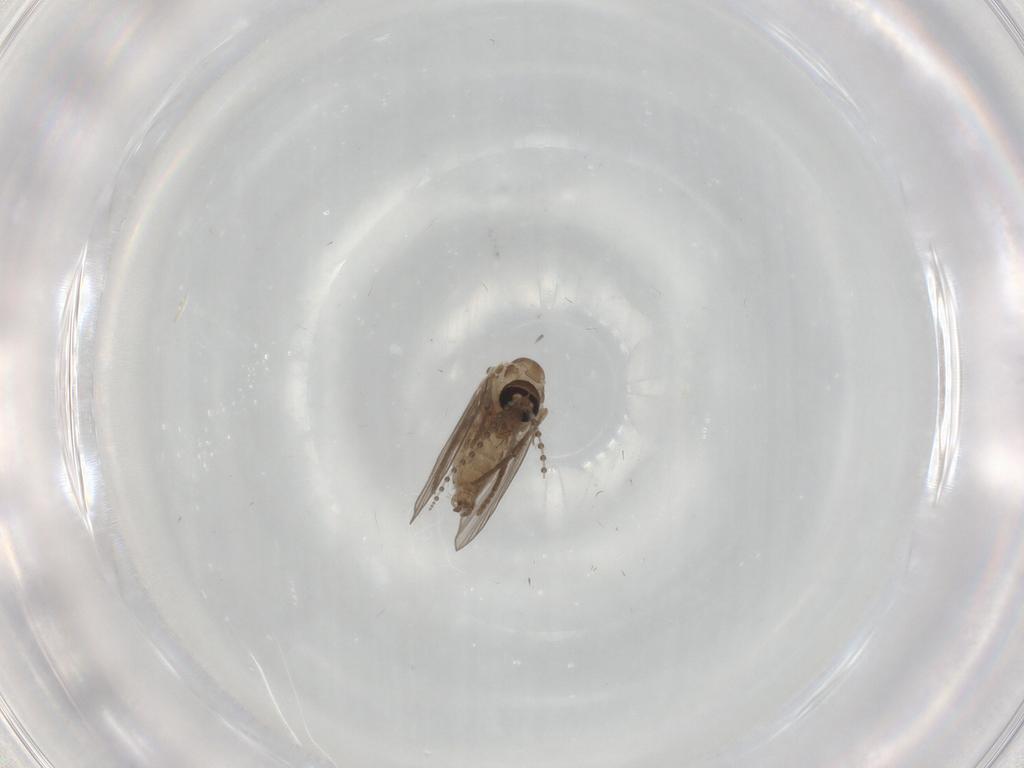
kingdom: Animalia
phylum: Arthropoda
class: Insecta
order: Diptera
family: Psychodidae
